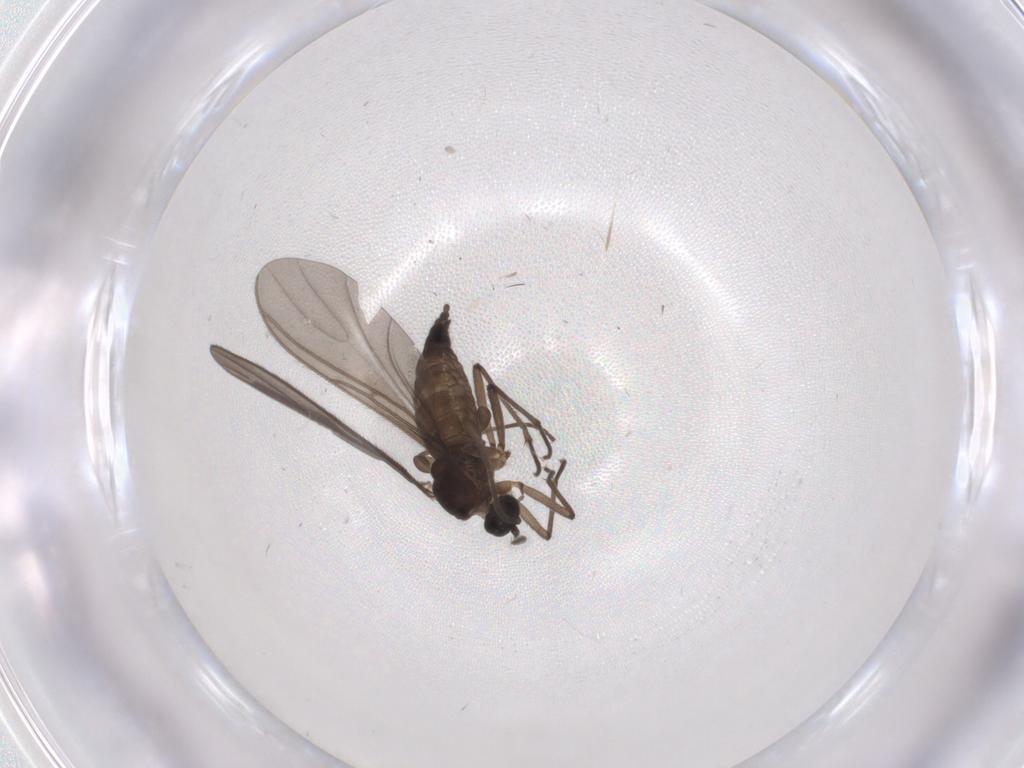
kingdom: Animalia
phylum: Arthropoda
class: Insecta
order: Diptera
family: Sciaridae
